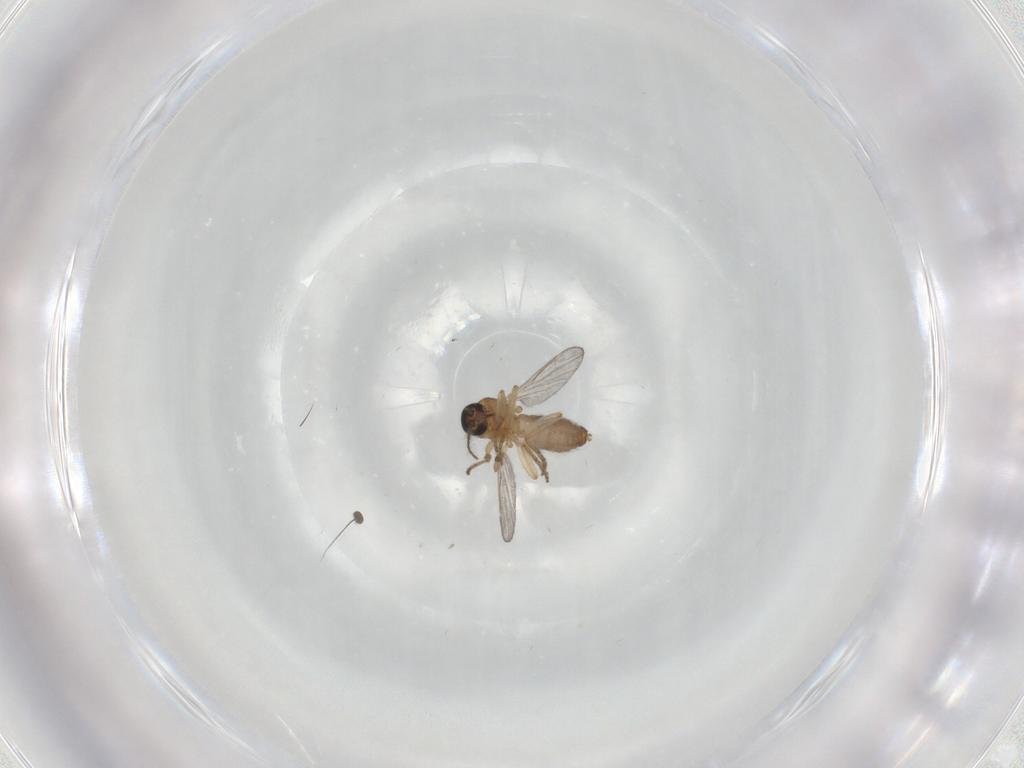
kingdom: Animalia
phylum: Arthropoda
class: Insecta
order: Diptera
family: Dolichopodidae
